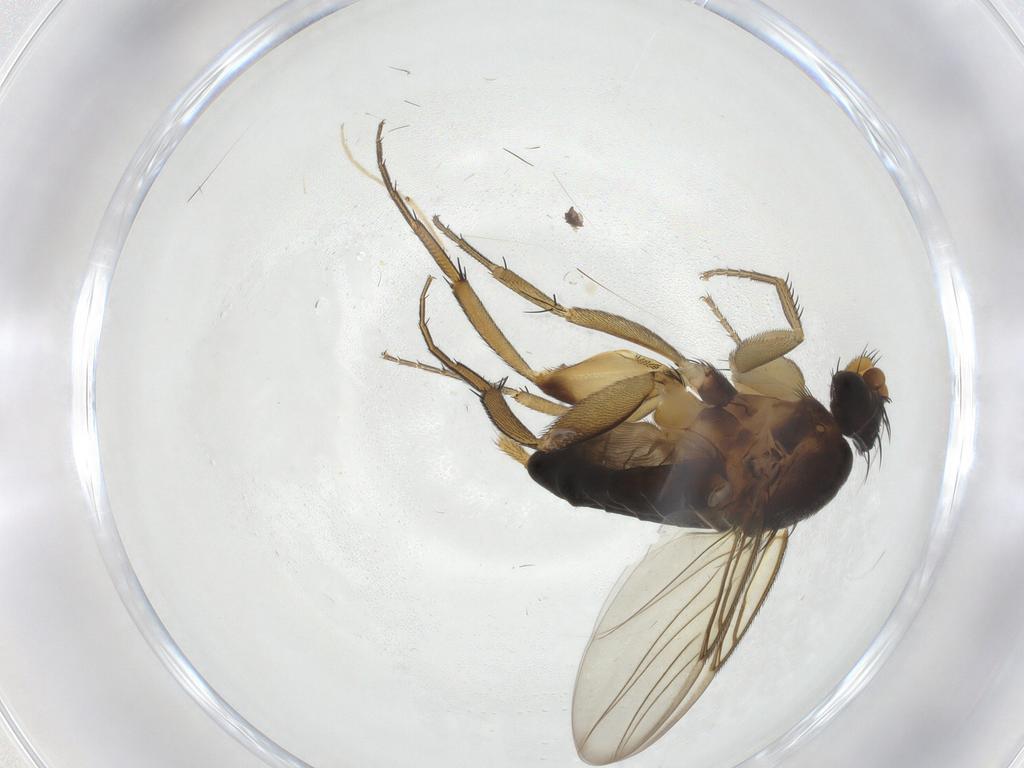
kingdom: Animalia
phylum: Arthropoda
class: Insecta
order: Diptera
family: Phoridae
